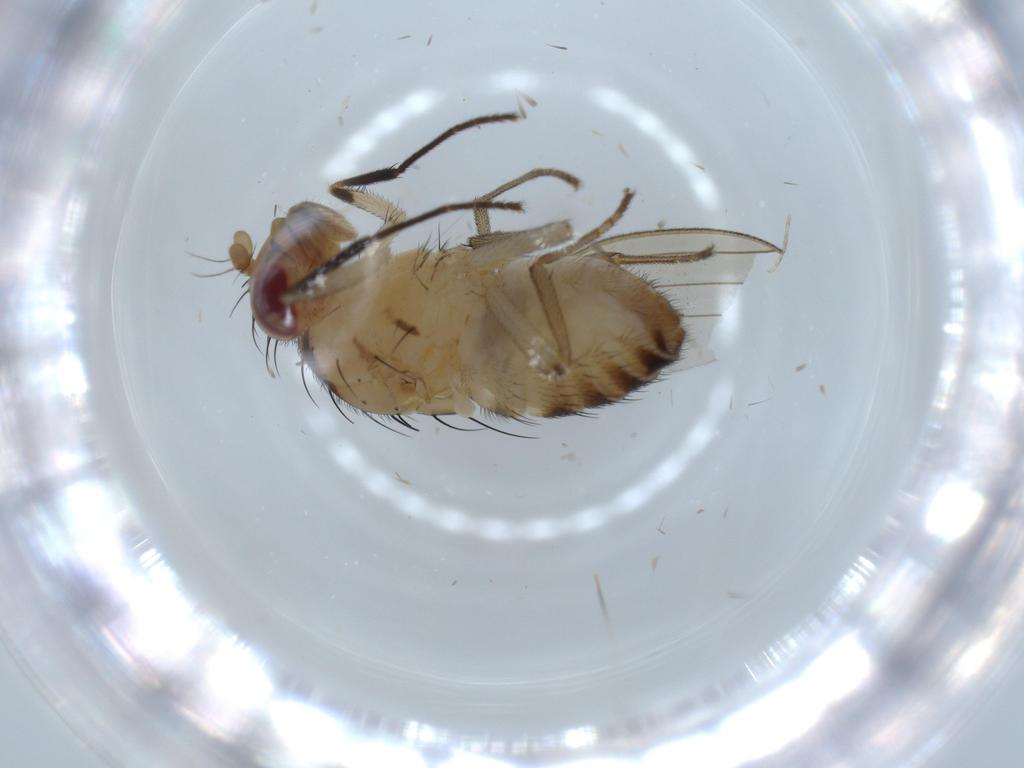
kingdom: Animalia
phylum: Arthropoda
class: Insecta
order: Diptera
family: Lauxaniidae
